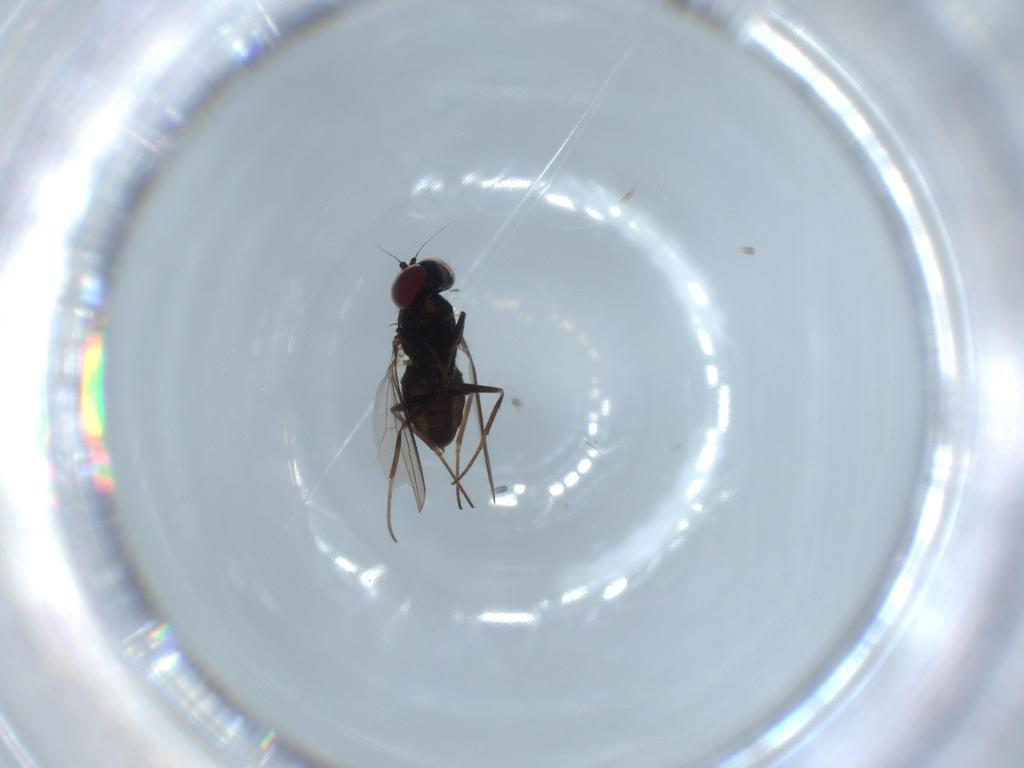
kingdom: Animalia
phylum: Arthropoda
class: Insecta
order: Diptera
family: Dolichopodidae
